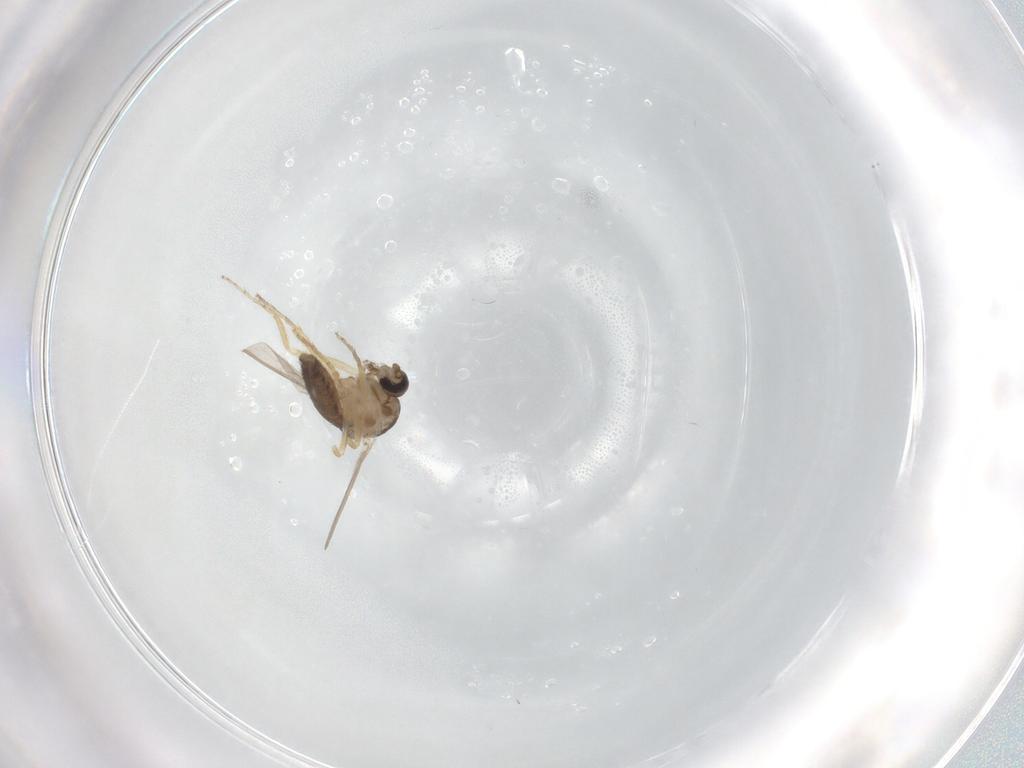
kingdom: Animalia
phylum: Arthropoda
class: Insecta
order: Diptera
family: Ceratopogonidae
